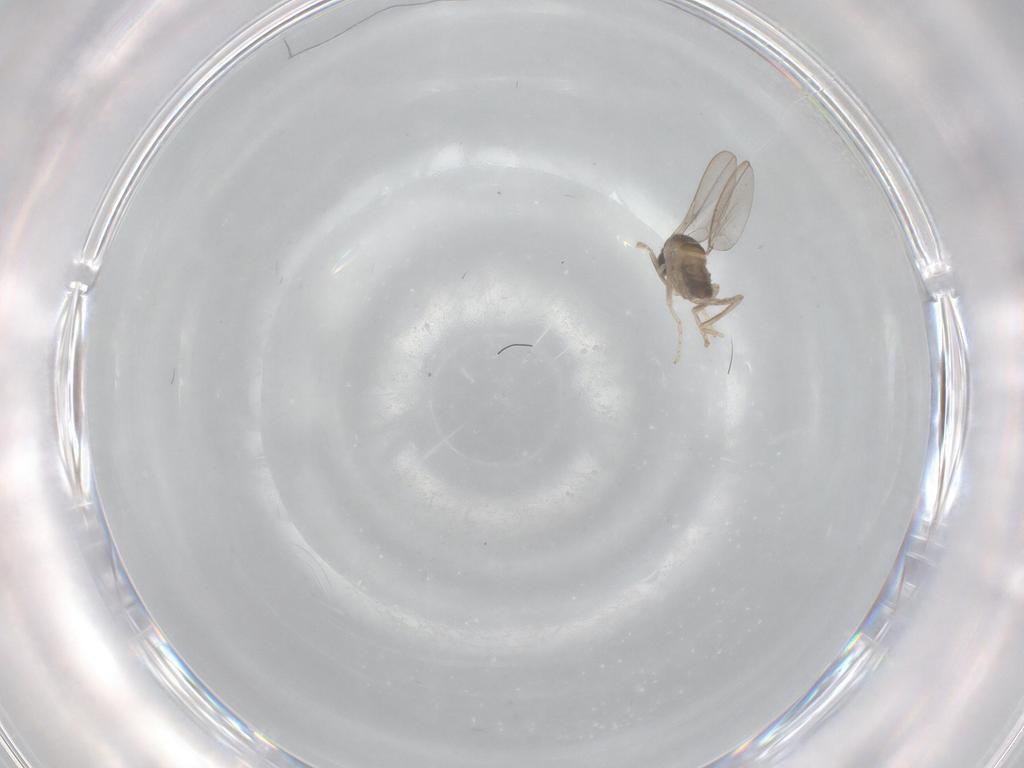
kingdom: Animalia
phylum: Arthropoda
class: Insecta
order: Diptera
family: Cecidomyiidae
